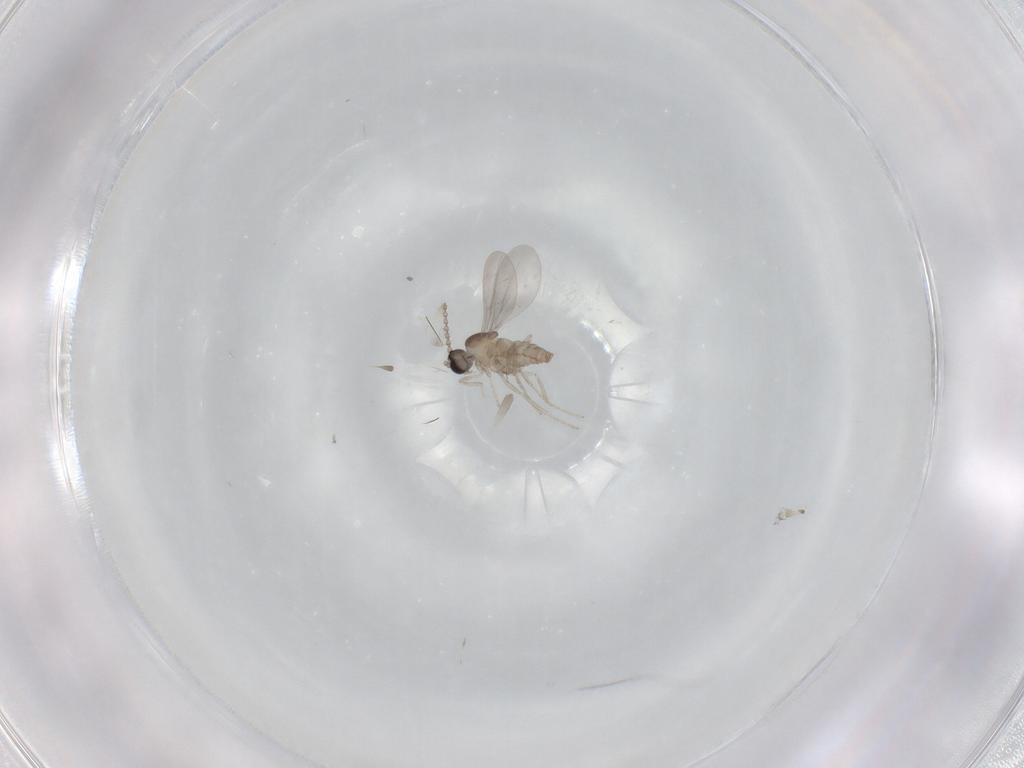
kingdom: Animalia
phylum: Arthropoda
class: Insecta
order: Diptera
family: Cecidomyiidae
